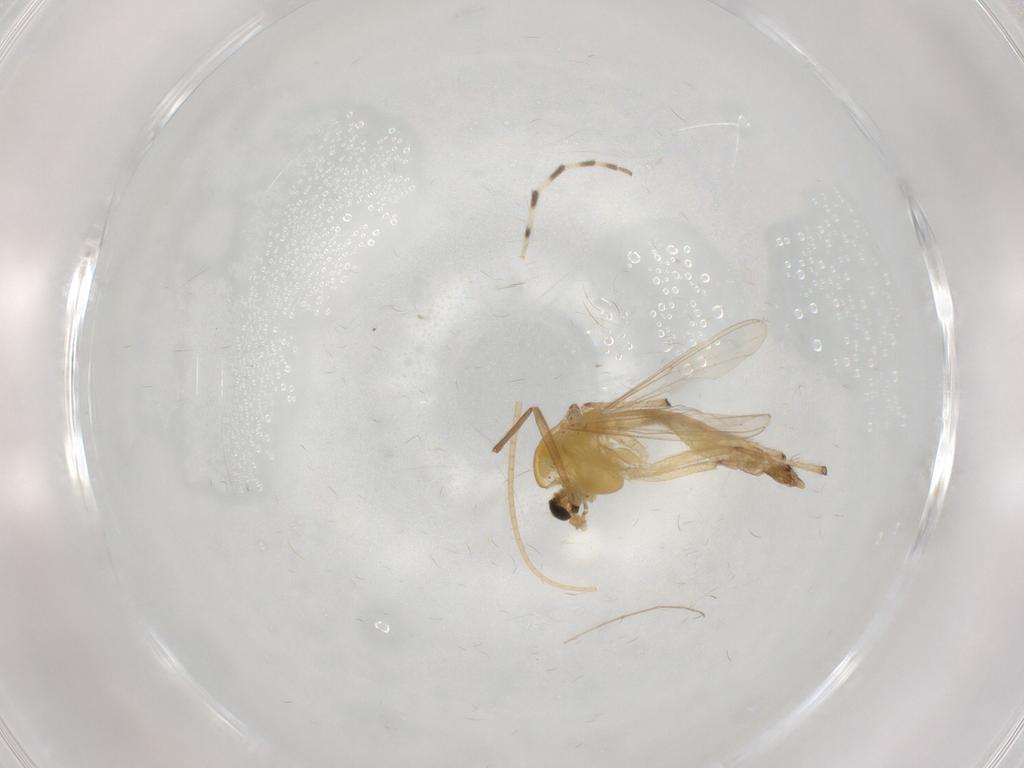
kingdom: Animalia
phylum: Arthropoda
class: Insecta
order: Diptera
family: Chironomidae
